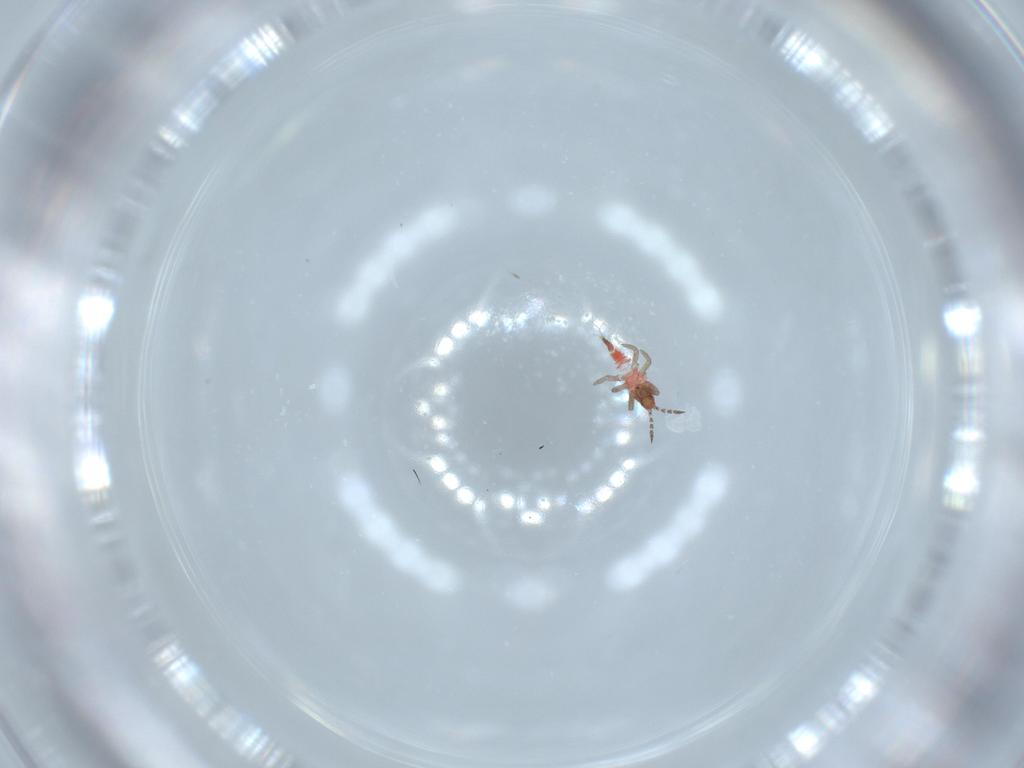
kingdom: Animalia
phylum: Arthropoda
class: Insecta
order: Thysanoptera
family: Phlaeothripidae
